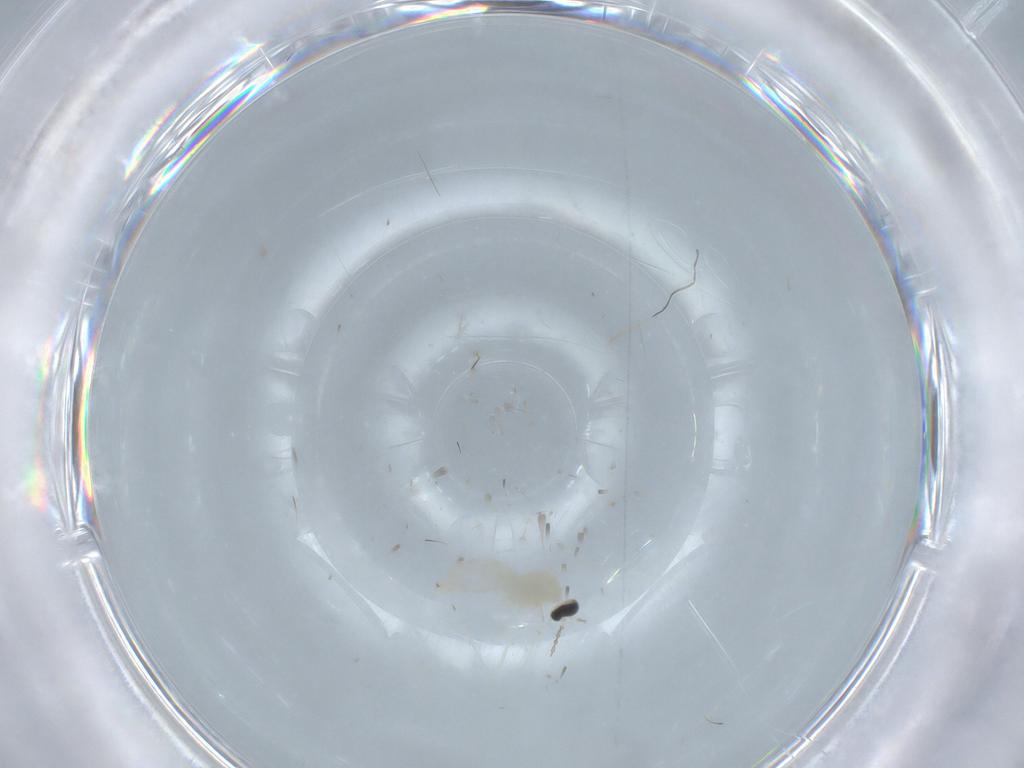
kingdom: Animalia
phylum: Arthropoda
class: Insecta
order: Diptera
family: Cecidomyiidae
